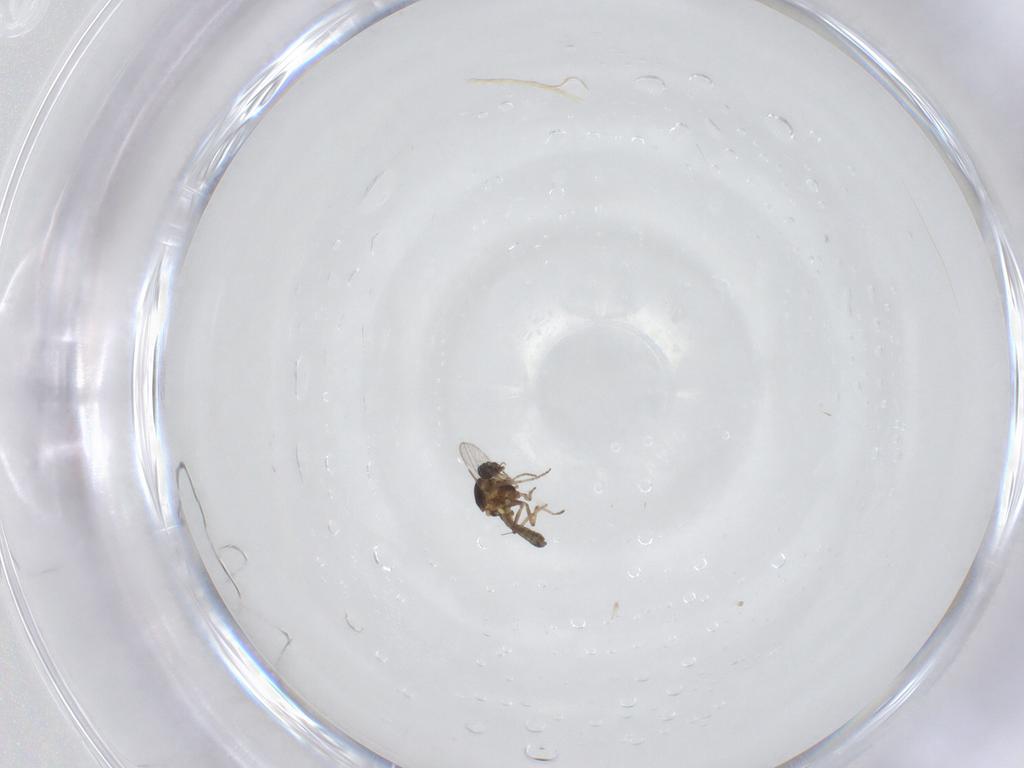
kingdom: Animalia
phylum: Arthropoda
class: Insecta
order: Diptera
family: Ceratopogonidae
